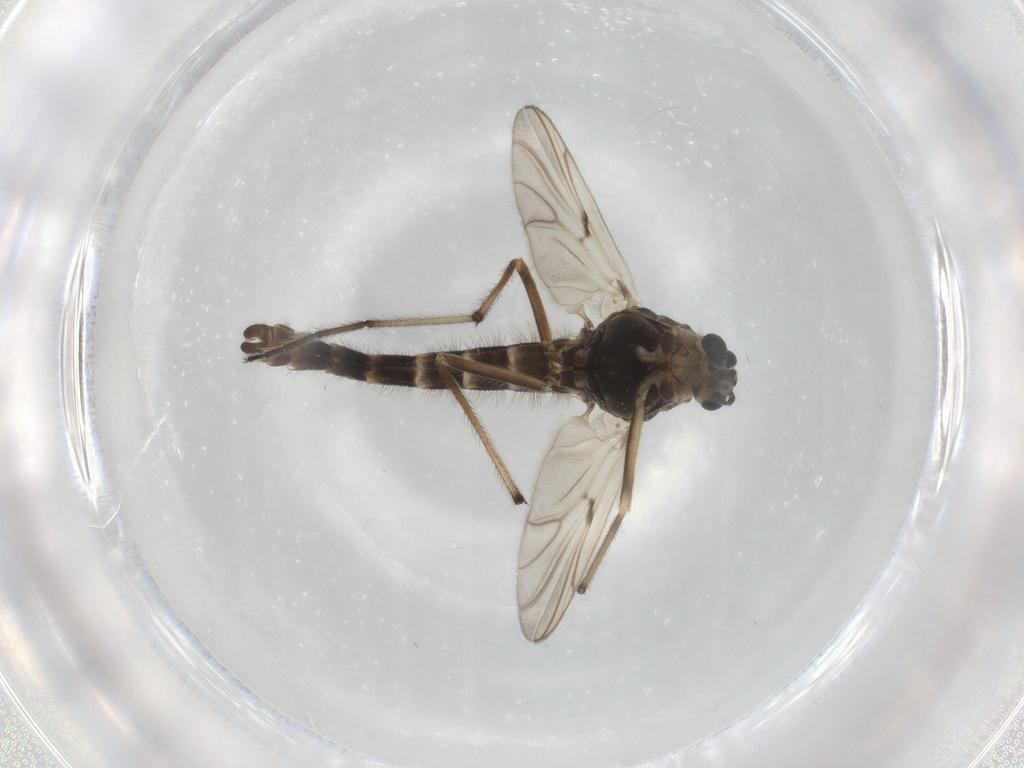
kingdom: Animalia
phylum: Arthropoda
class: Insecta
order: Diptera
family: Chironomidae
